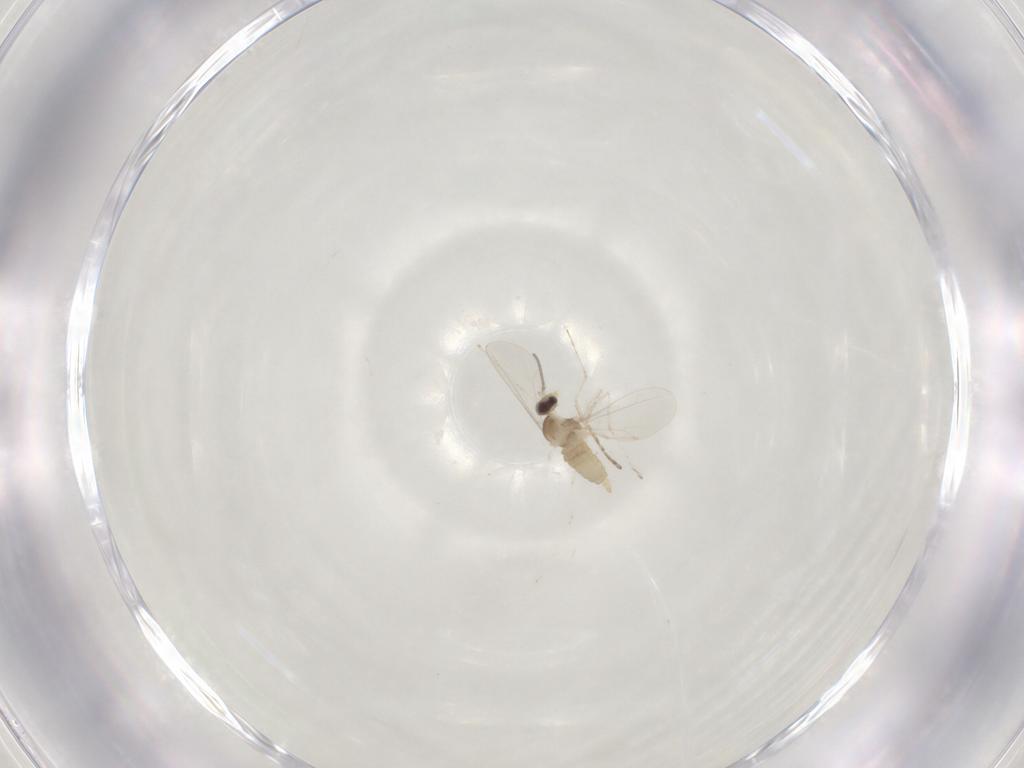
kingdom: Animalia
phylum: Arthropoda
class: Insecta
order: Diptera
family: Cecidomyiidae
